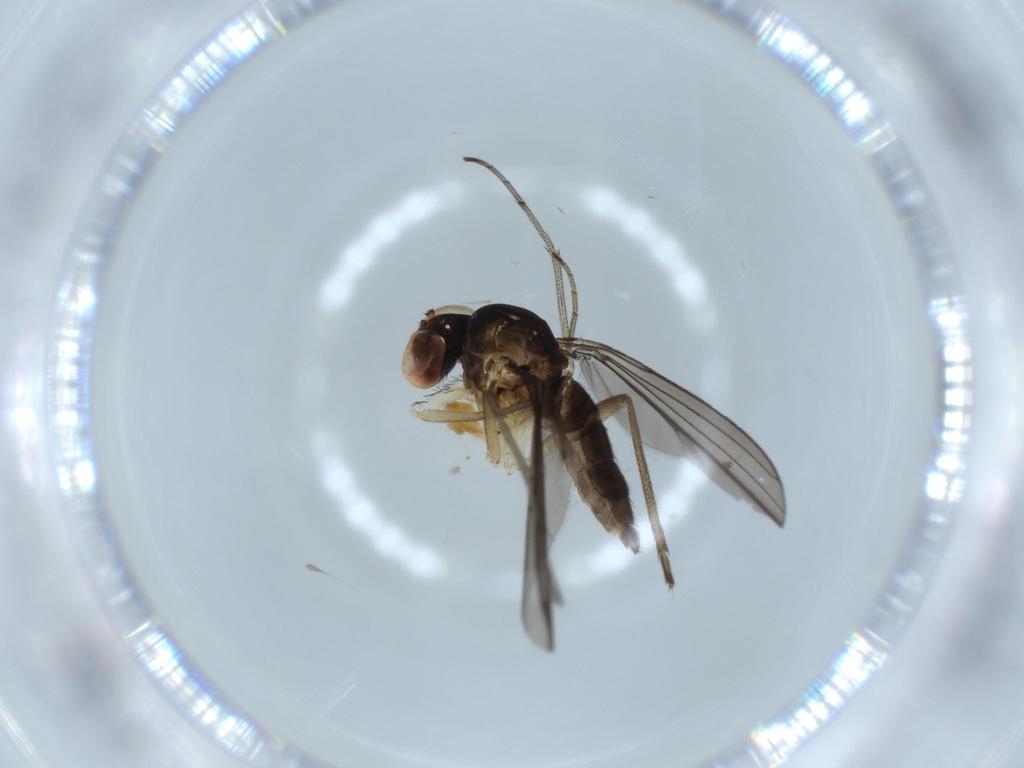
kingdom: Animalia
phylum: Arthropoda
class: Insecta
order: Diptera
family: Dolichopodidae
